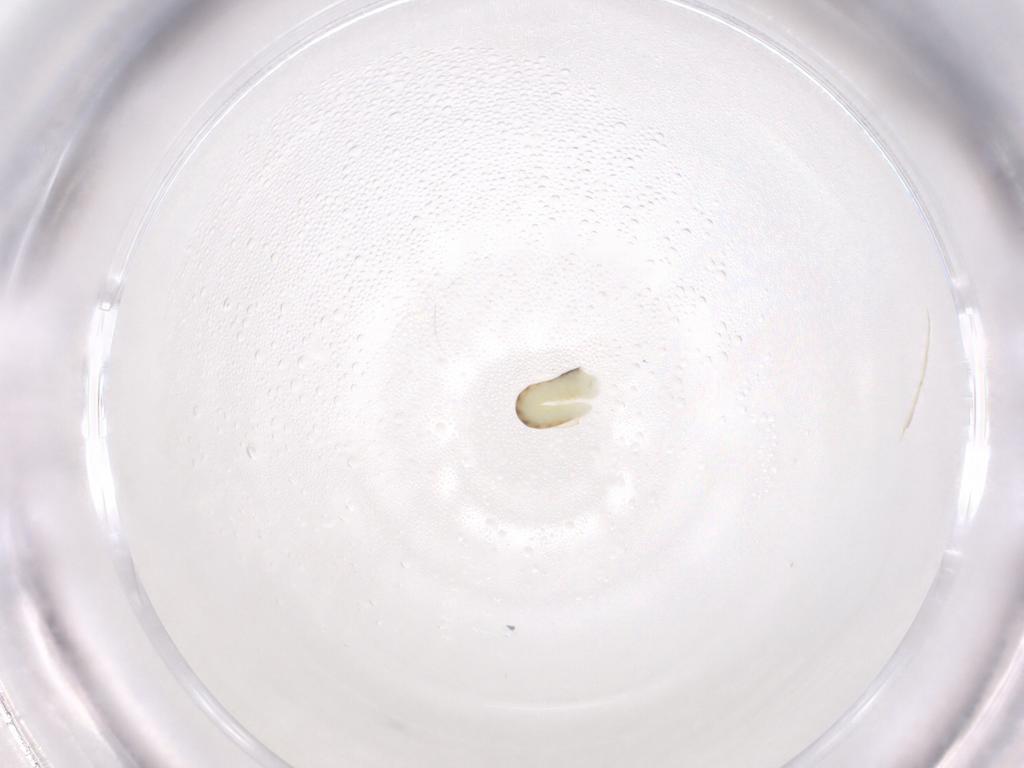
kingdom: Animalia
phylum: Arthropoda
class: Insecta
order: Hymenoptera
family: Dryinidae
